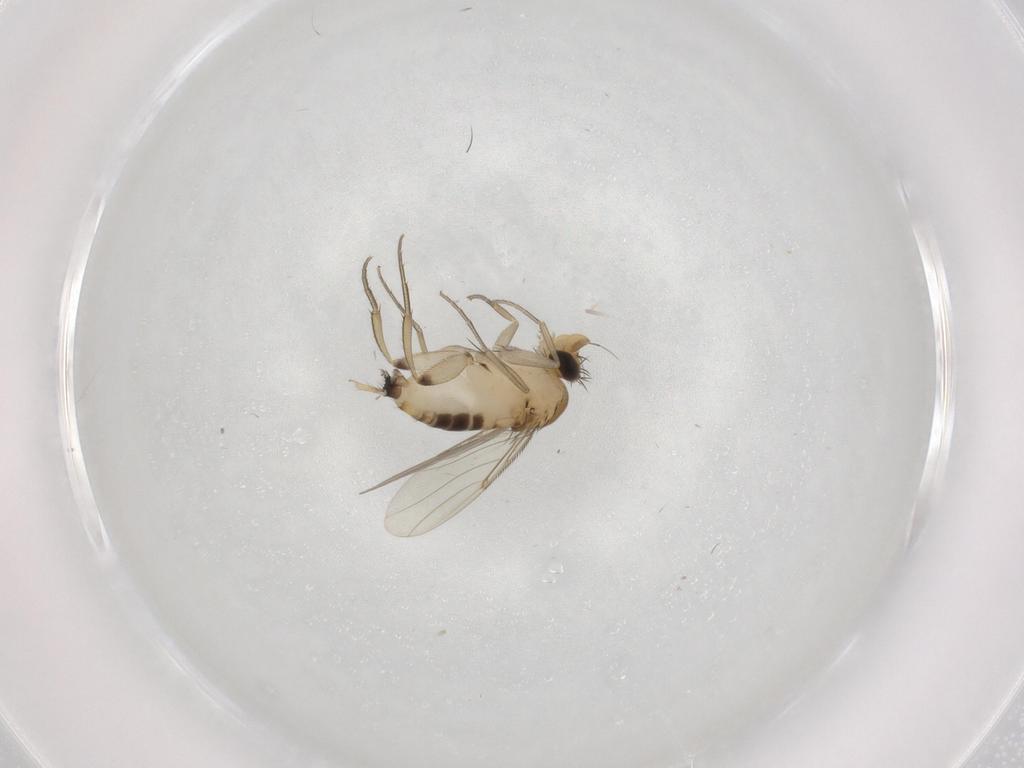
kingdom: Animalia
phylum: Arthropoda
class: Insecta
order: Diptera
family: Phoridae
